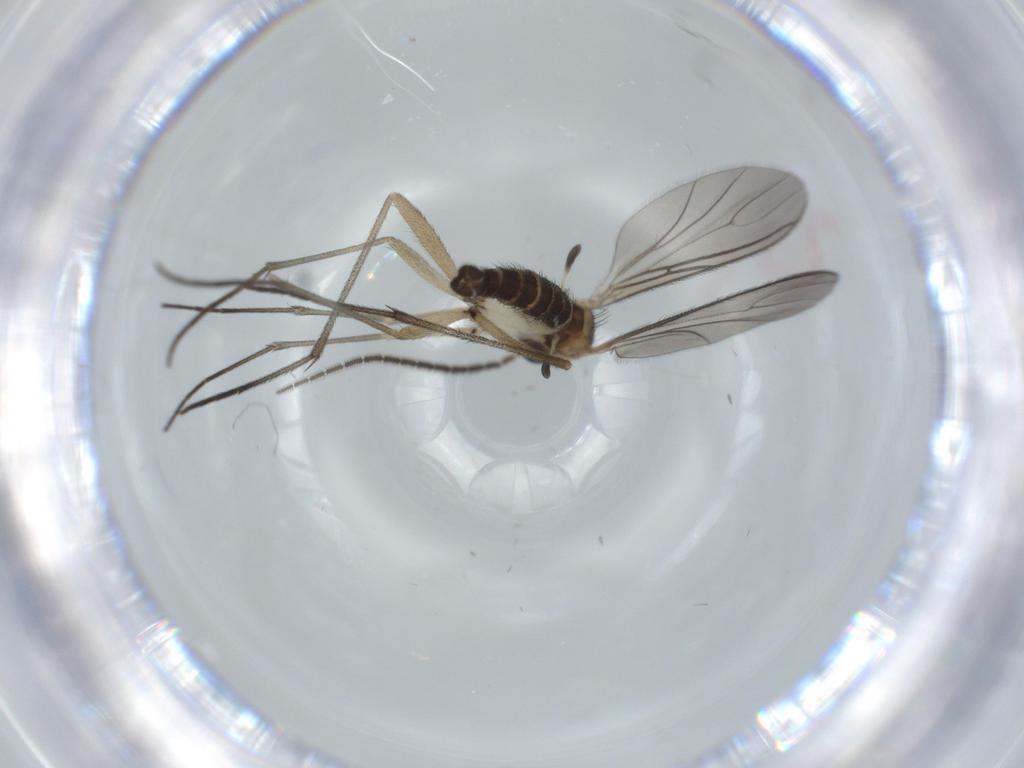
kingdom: Animalia
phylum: Arthropoda
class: Insecta
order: Diptera
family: Sciaridae
